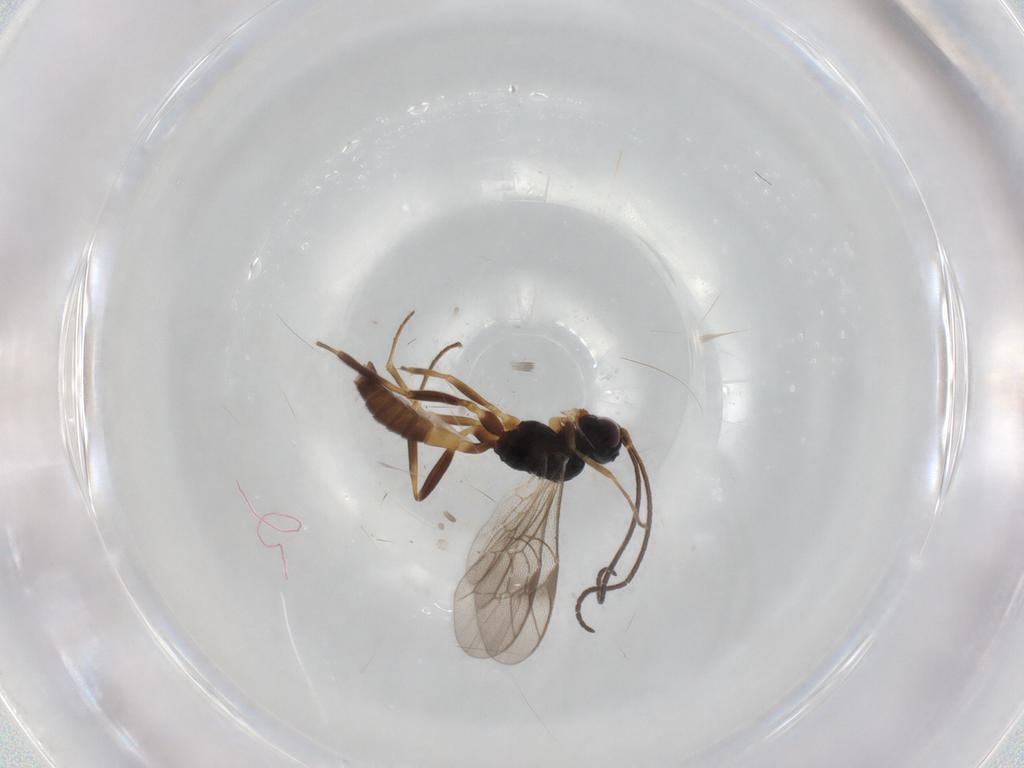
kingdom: Animalia
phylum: Arthropoda
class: Insecta
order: Hymenoptera
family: Ichneumonidae
